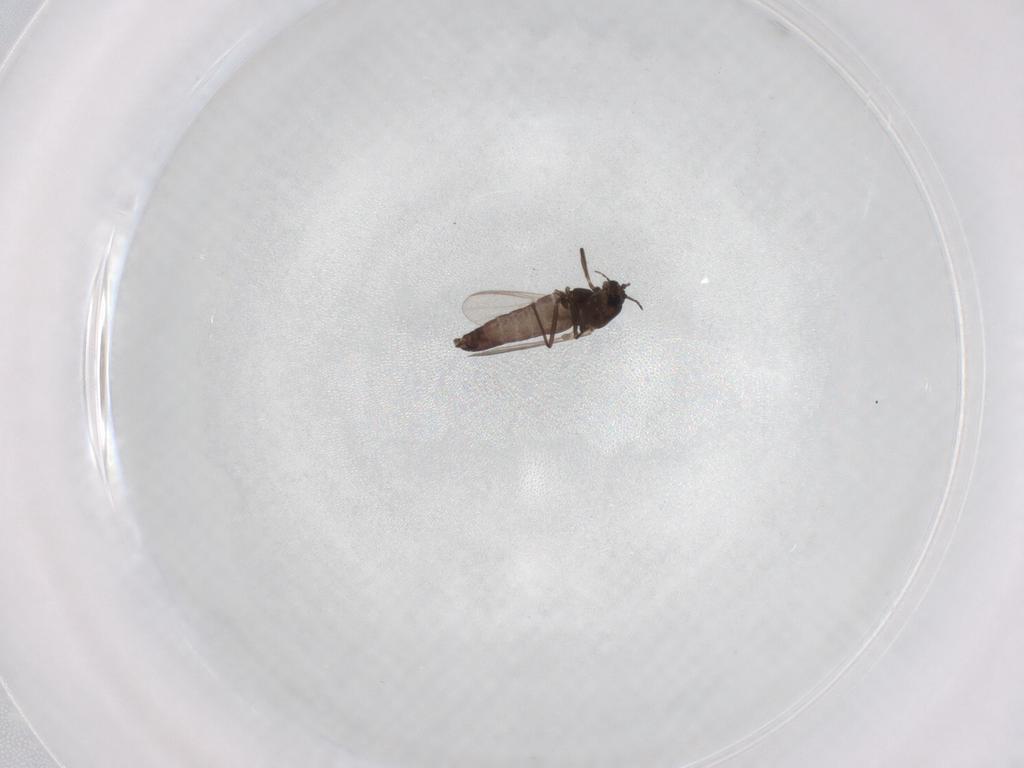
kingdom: Animalia
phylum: Arthropoda
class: Insecta
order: Diptera
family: Chironomidae
